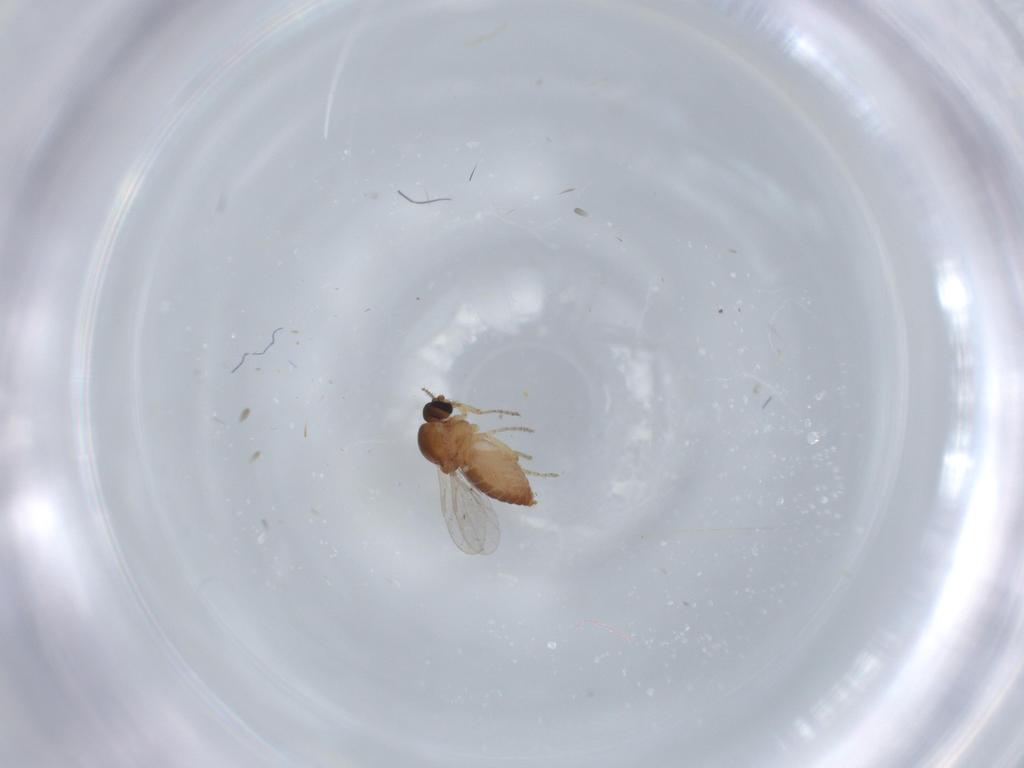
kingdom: Animalia
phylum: Arthropoda
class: Insecta
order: Diptera
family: Ceratopogonidae
